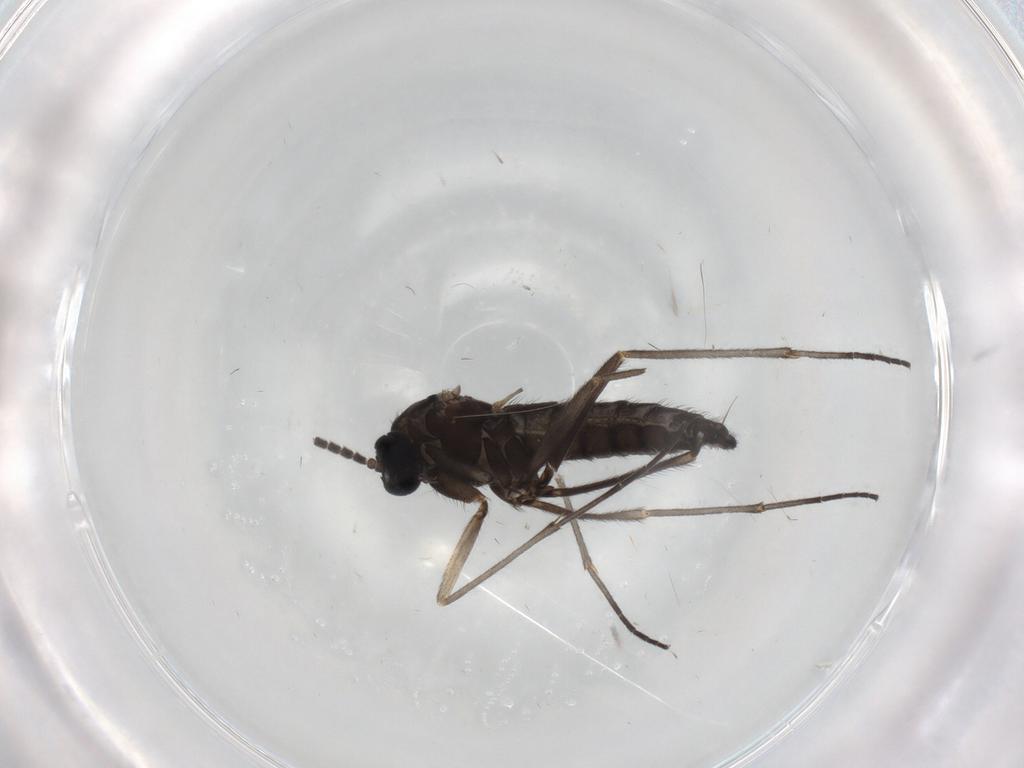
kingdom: Animalia
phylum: Arthropoda
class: Insecta
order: Diptera
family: Sciaridae
